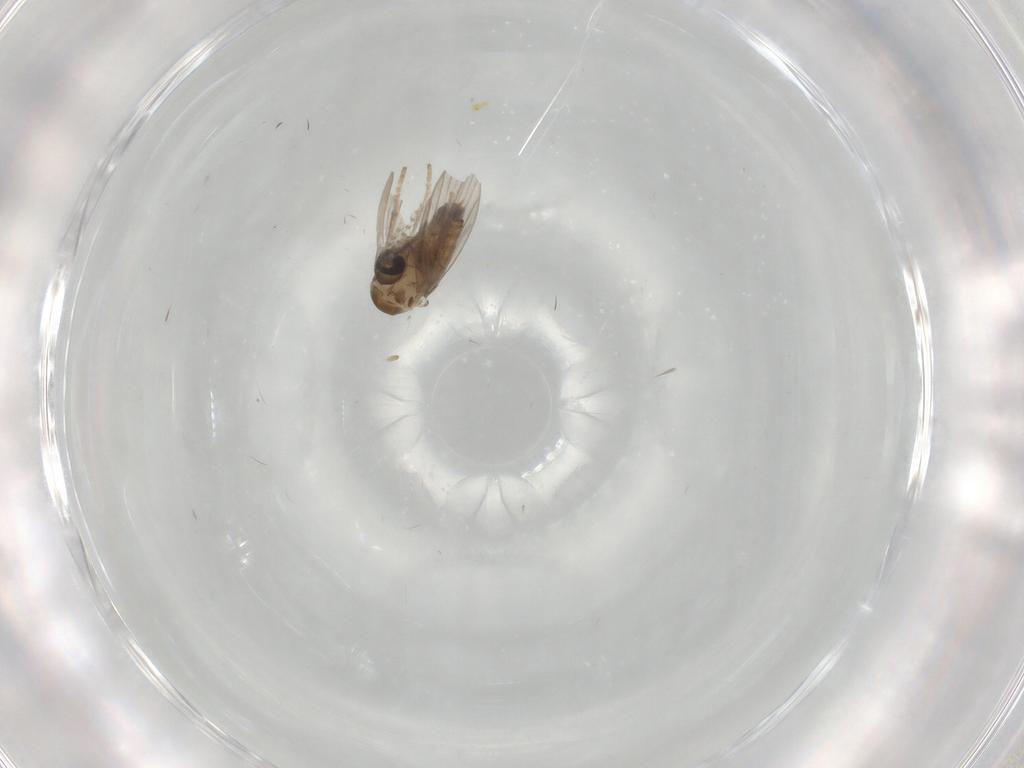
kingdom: Animalia
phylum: Arthropoda
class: Insecta
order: Diptera
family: Psychodidae
